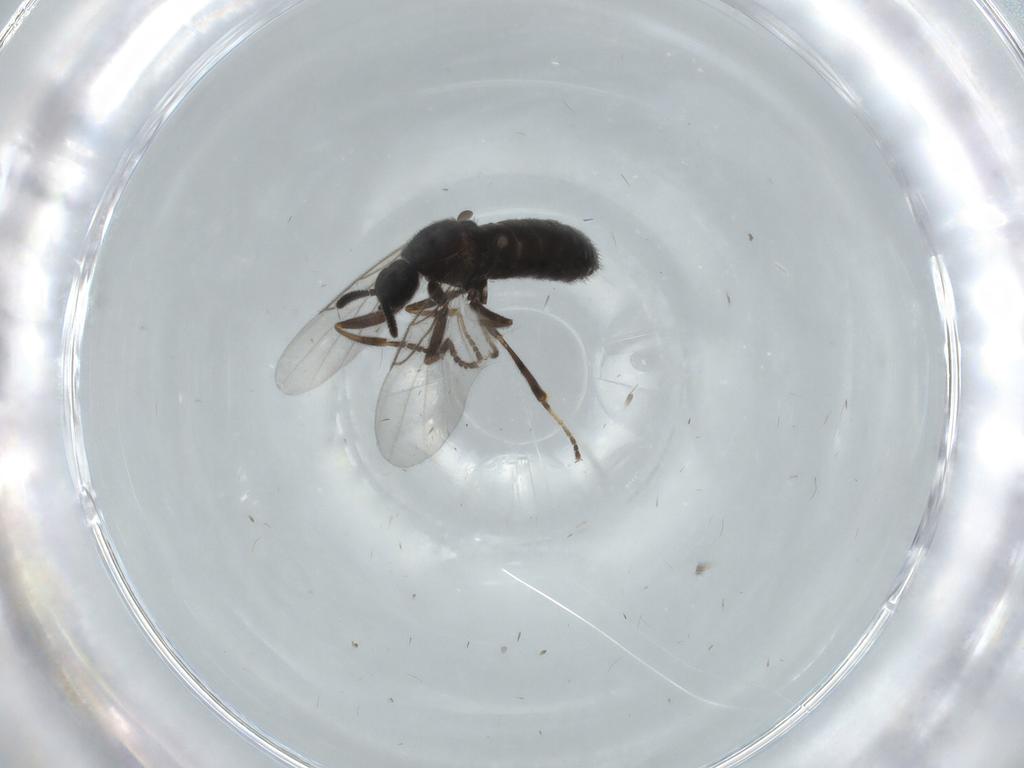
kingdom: Animalia
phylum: Arthropoda
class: Insecta
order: Diptera
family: Scatopsidae
